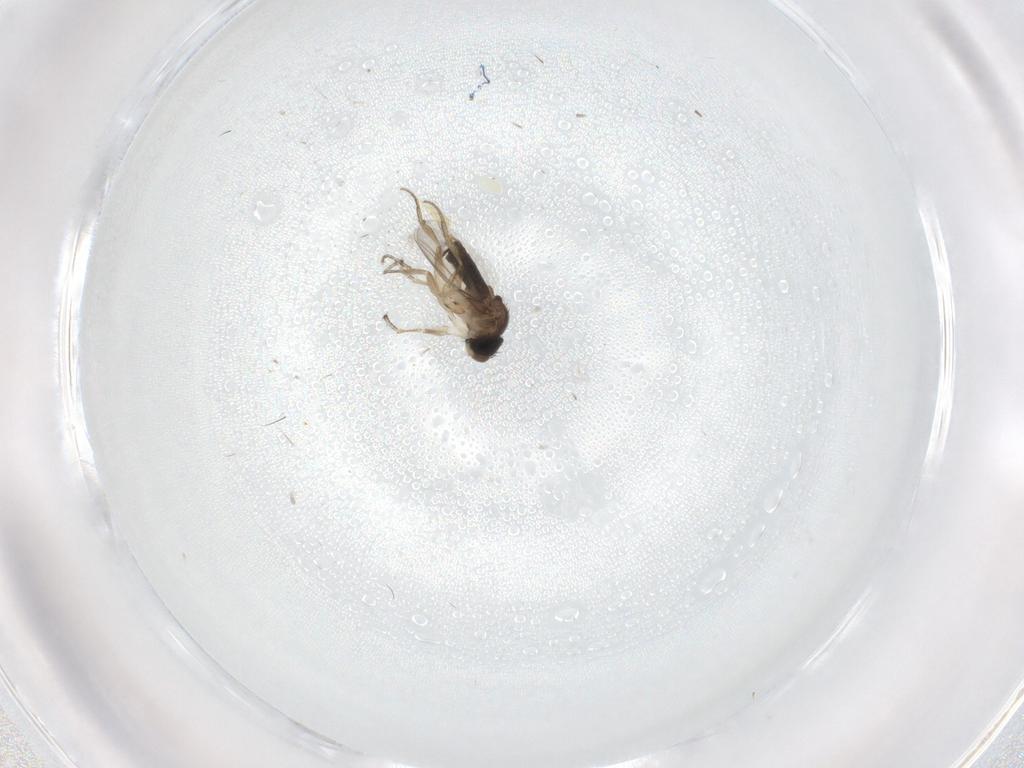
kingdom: Animalia
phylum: Arthropoda
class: Insecta
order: Diptera
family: Phoridae
